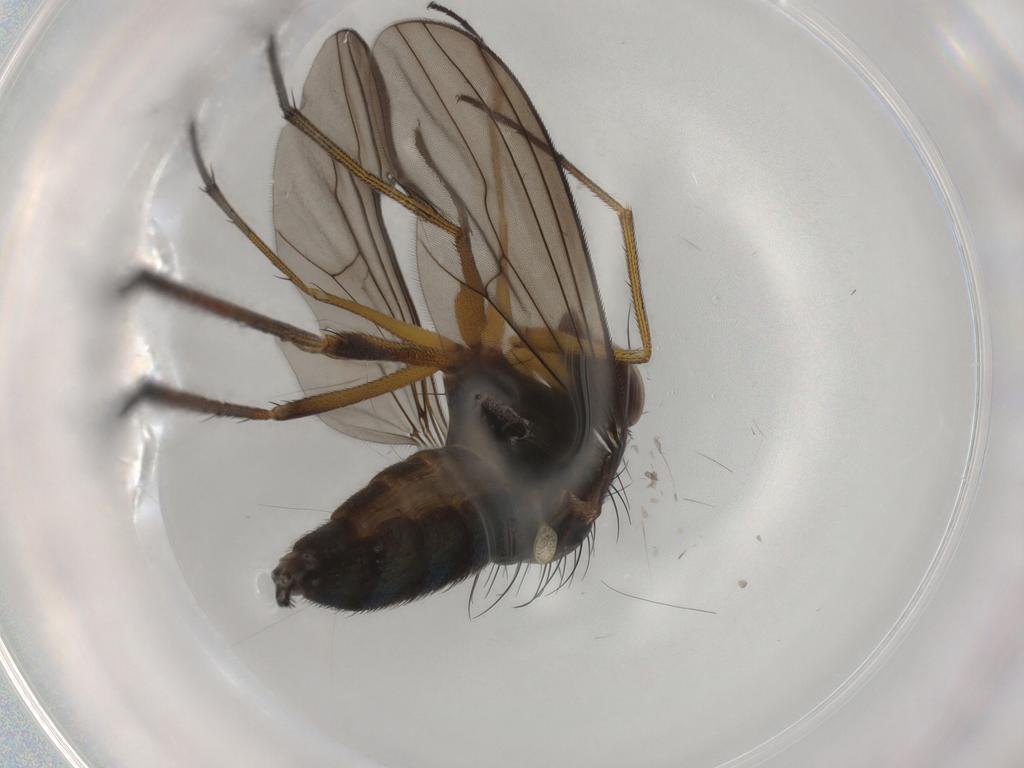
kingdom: Animalia
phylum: Arthropoda
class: Insecta
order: Diptera
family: Dolichopodidae
